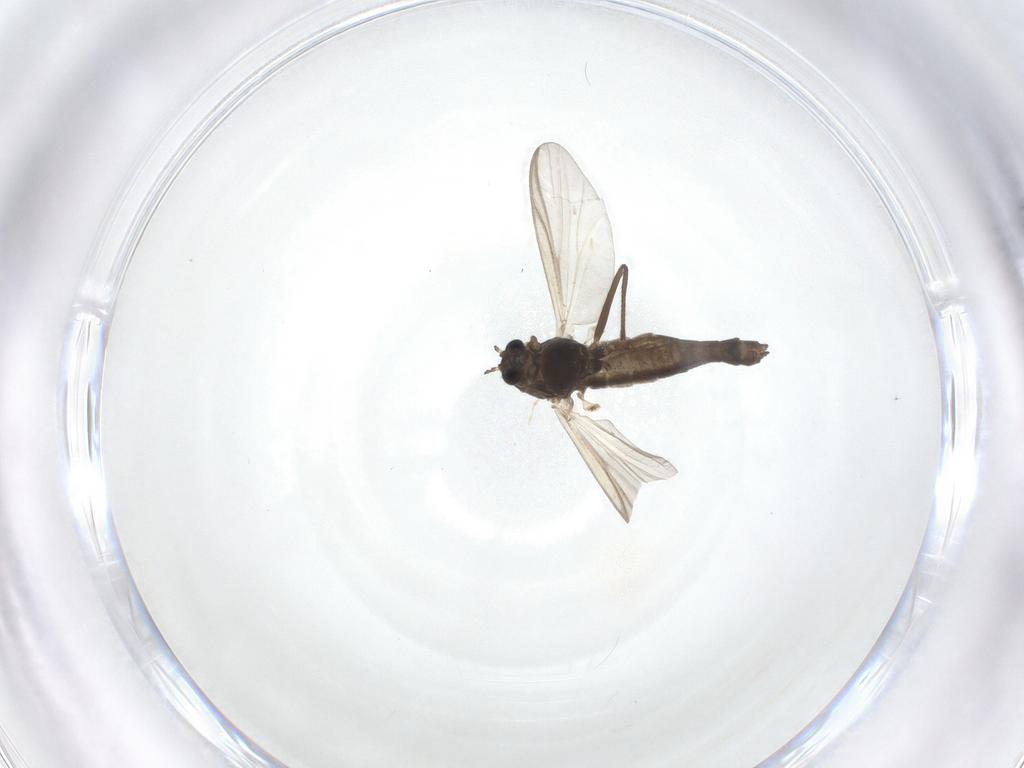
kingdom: Animalia
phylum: Arthropoda
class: Insecta
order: Diptera
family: Chironomidae
